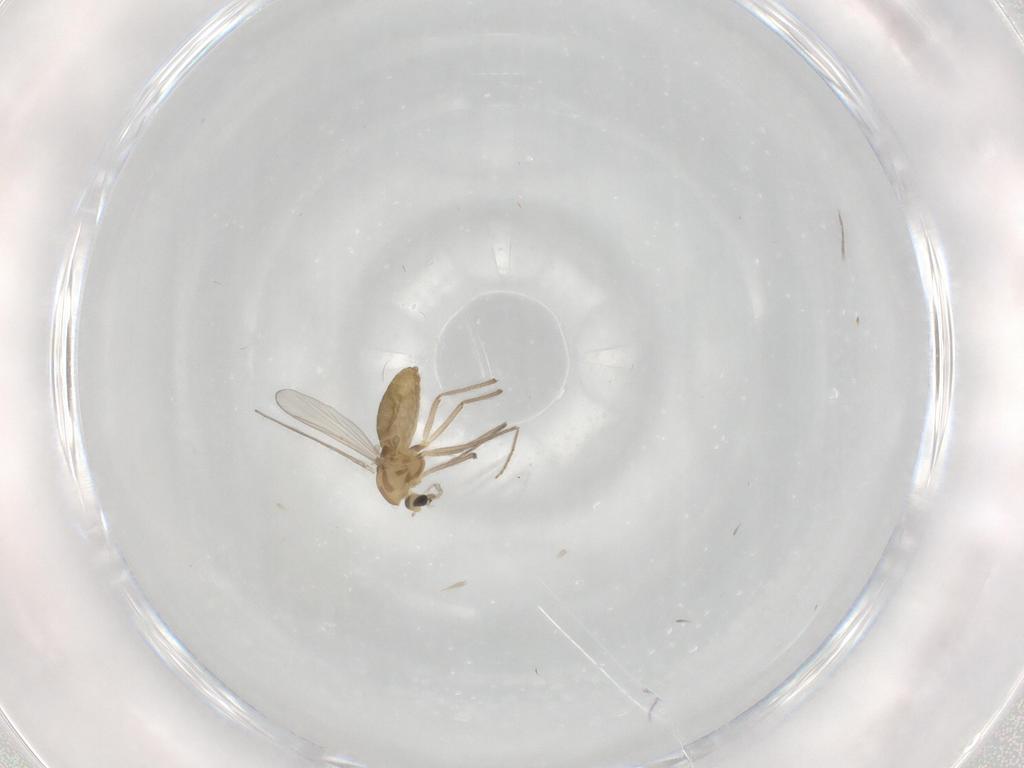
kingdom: Animalia
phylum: Arthropoda
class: Insecta
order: Diptera
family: Chironomidae
